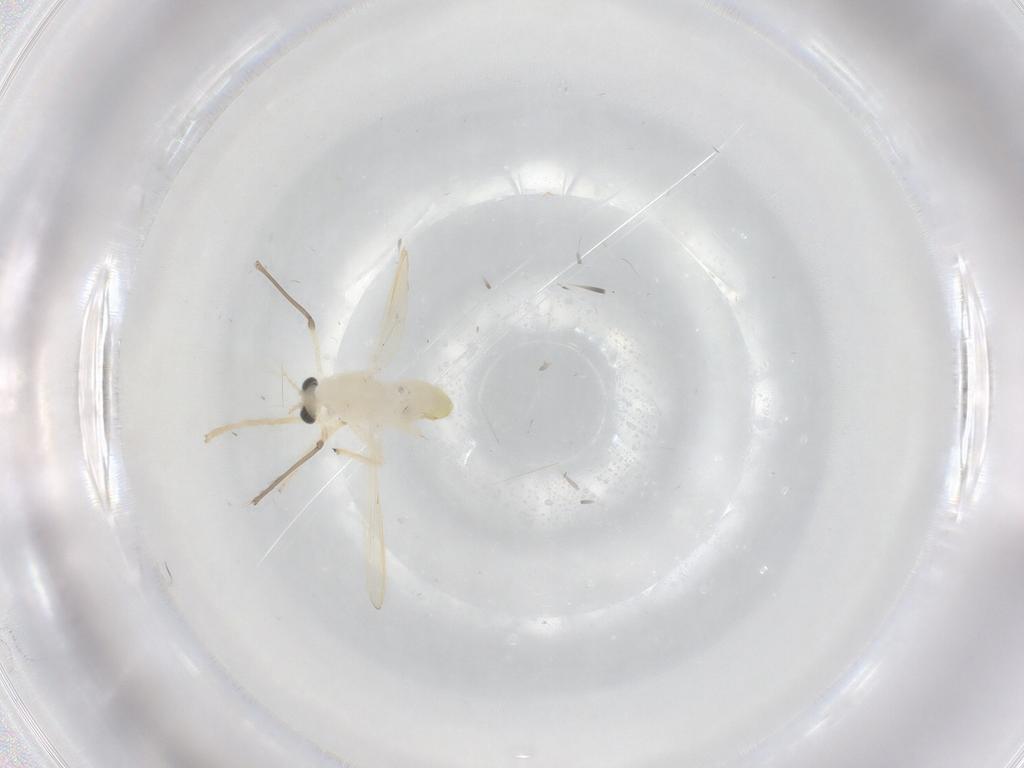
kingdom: Animalia
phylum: Arthropoda
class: Insecta
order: Diptera
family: Chironomidae
